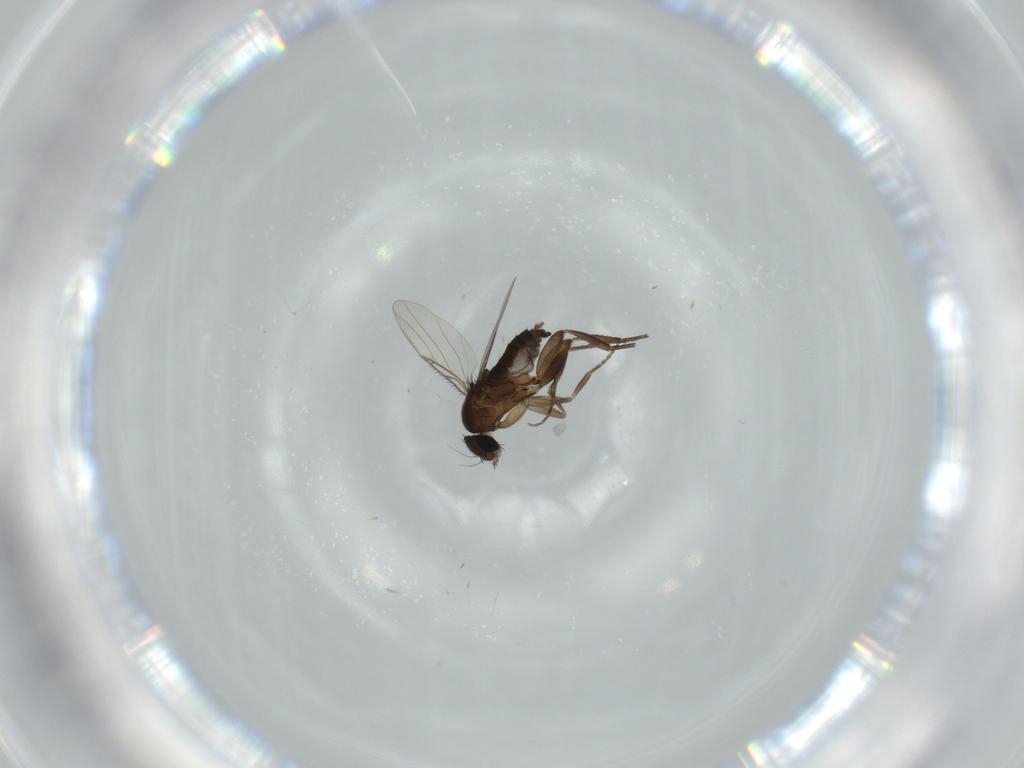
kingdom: Animalia
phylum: Arthropoda
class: Insecta
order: Diptera
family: Phoridae
